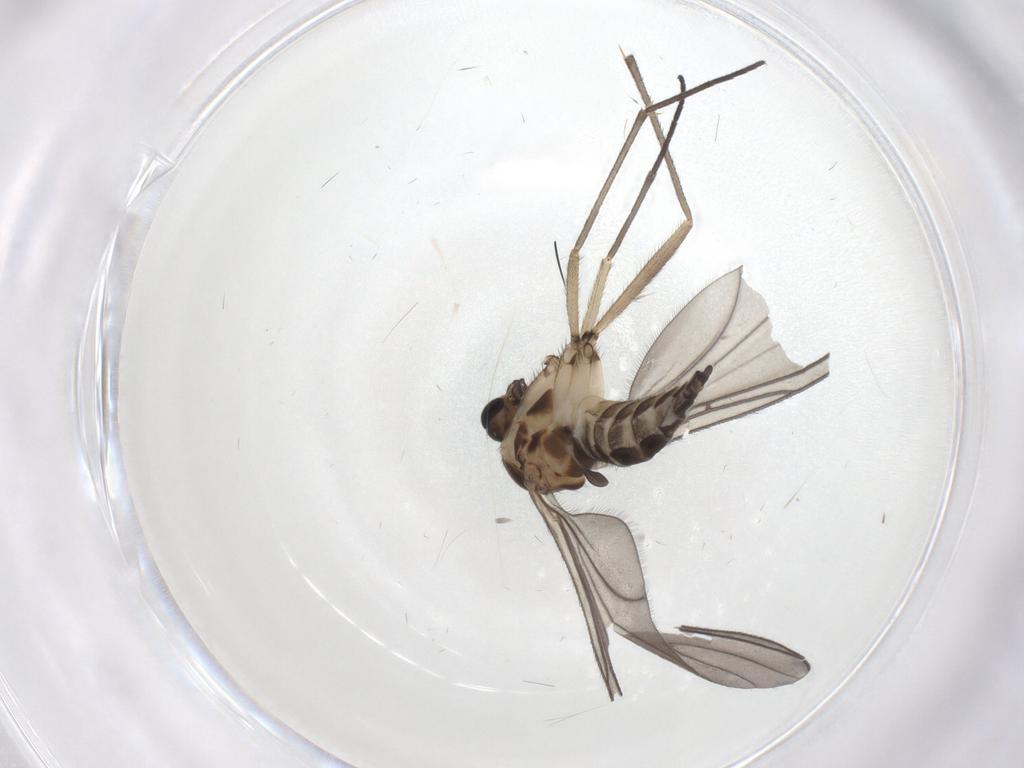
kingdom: Animalia
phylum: Arthropoda
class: Insecta
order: Diptera
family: Sciaridae
